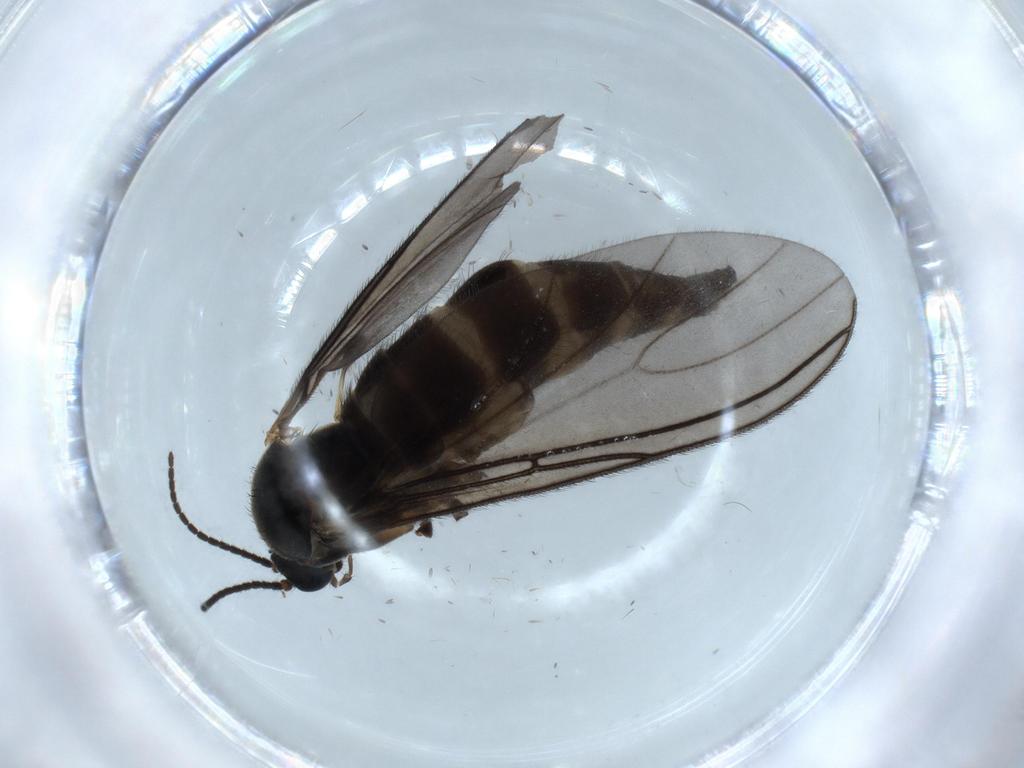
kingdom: Animalia
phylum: Arthropoda
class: Insecta
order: Diptera
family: Sciaridae
